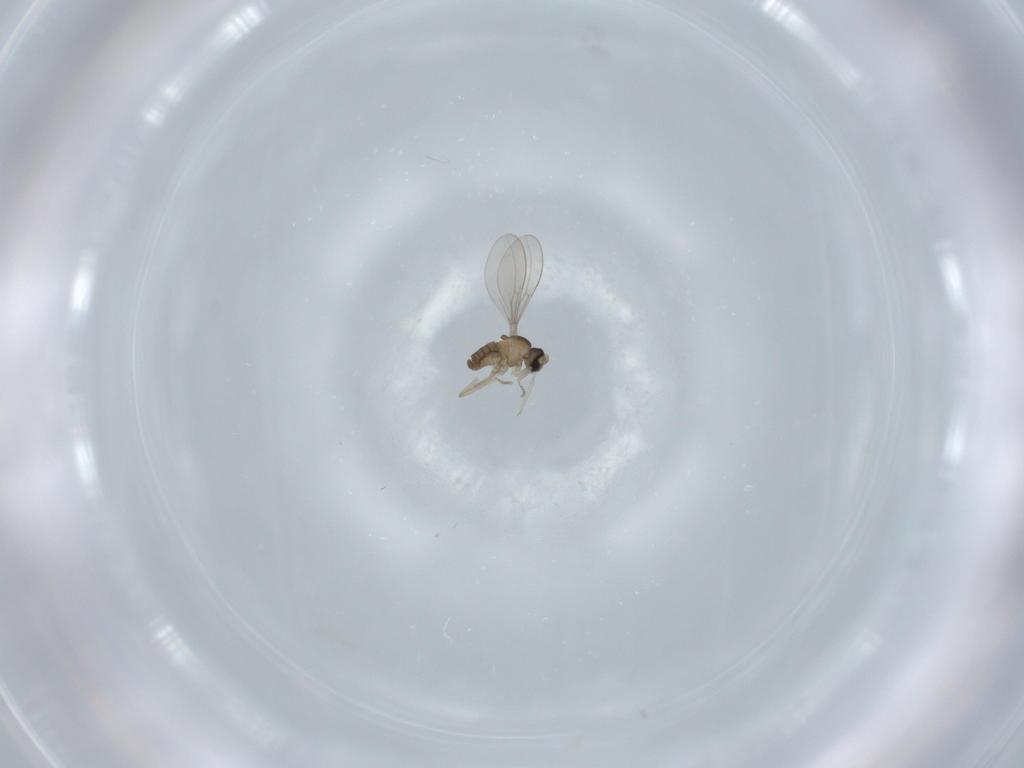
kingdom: Animalia
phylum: Arthropoda
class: Insecta
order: Diptera
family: Cecidomyiidae
